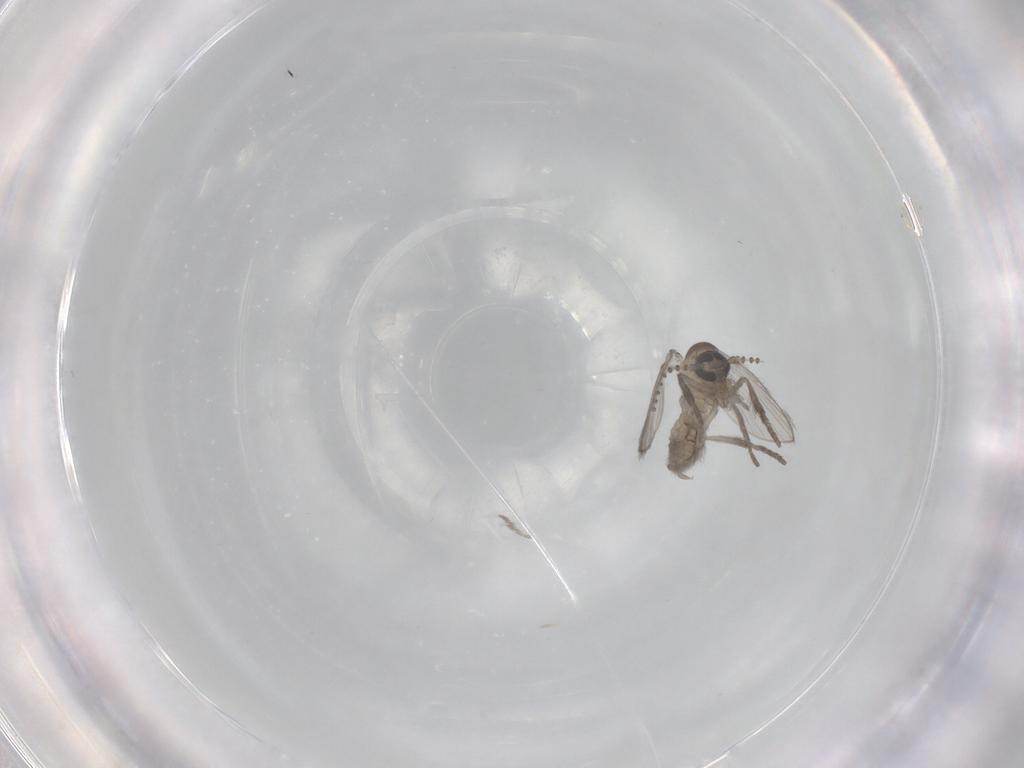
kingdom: Animalia
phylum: Arthropoda
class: Insecta
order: Diptera
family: Psychodidae
